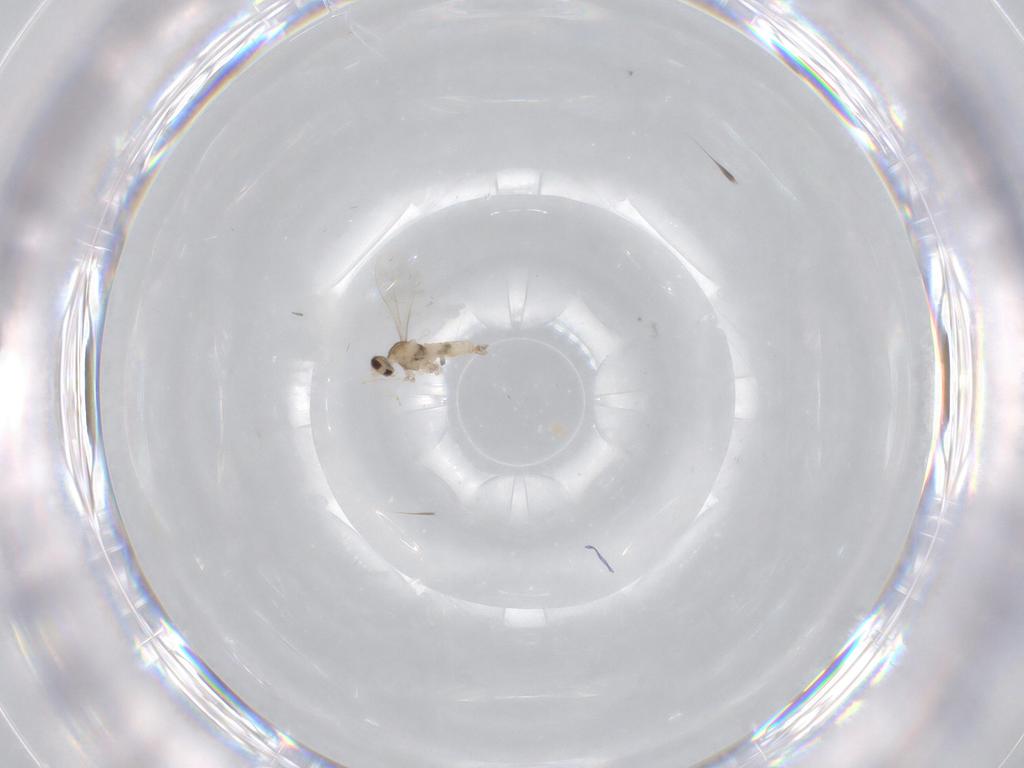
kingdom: Animalia
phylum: Arthropoda
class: Insecta
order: Diptera
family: Cecidomyiidae
